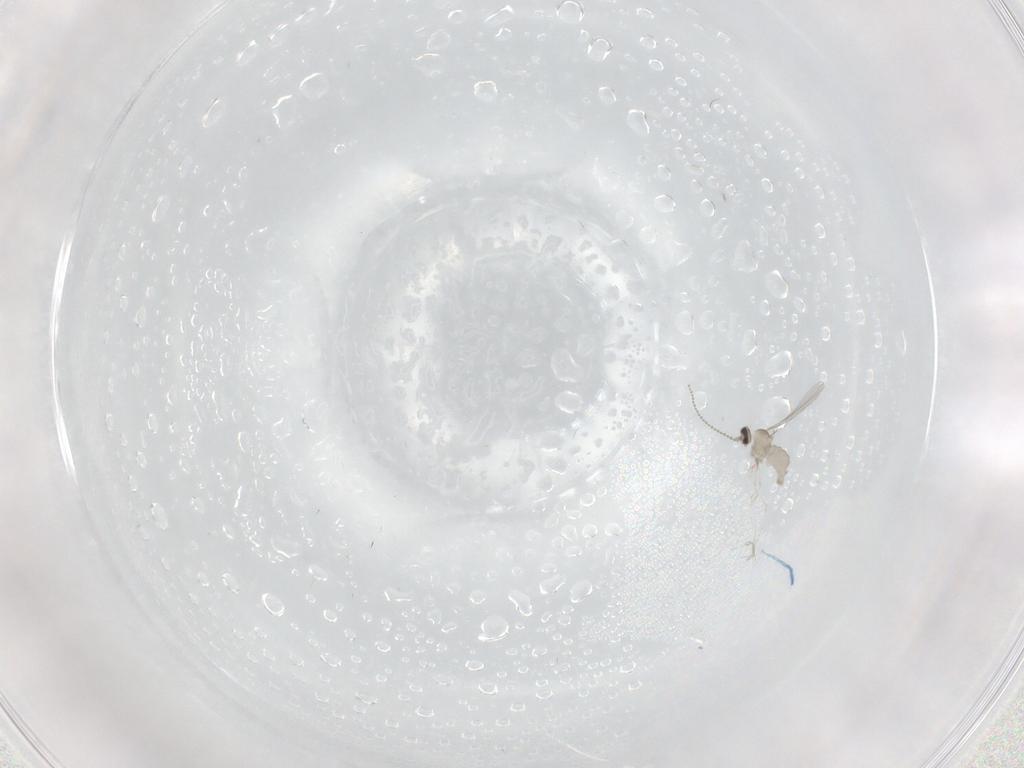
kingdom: Animalia
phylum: Arthropoda
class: Insecta
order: Diptera
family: Cecidomyiidae
